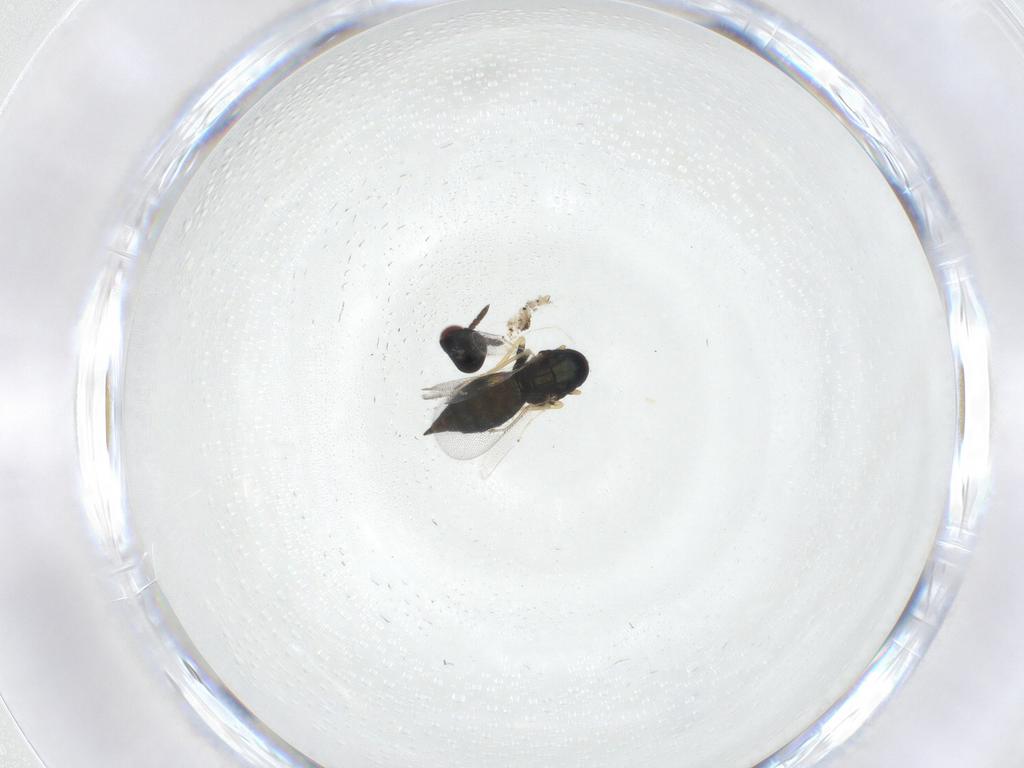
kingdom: Animalia
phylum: Arthropoda
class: Insecta
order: Hymenoptera
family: Eulophidae
